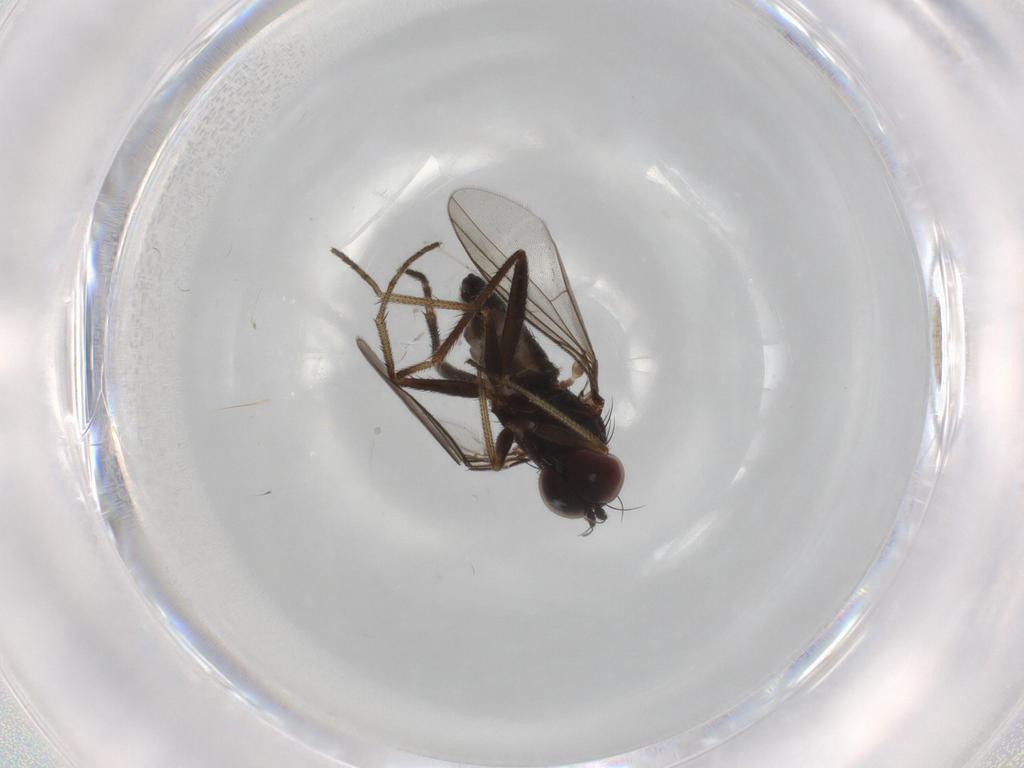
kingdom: Animalia
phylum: Arthropoda
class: Insecta
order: Diptera
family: Cecidomyiidae
